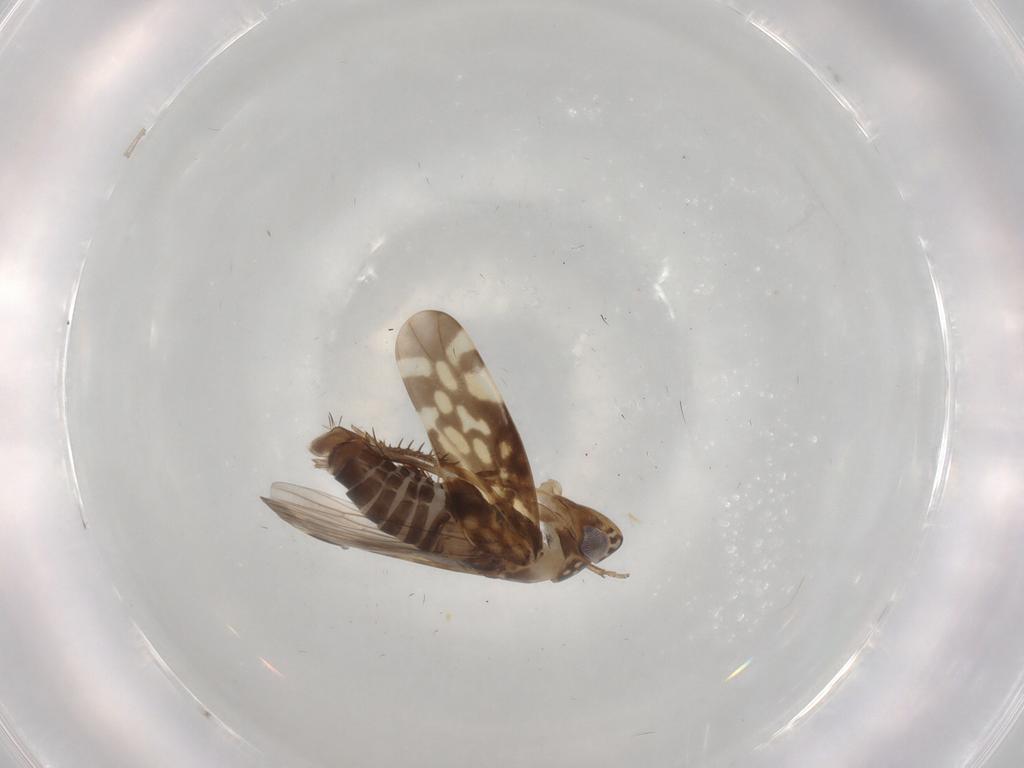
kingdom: Animalia
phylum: Arthropoda
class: Insecta
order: Hemiptera
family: Cicadellidae
